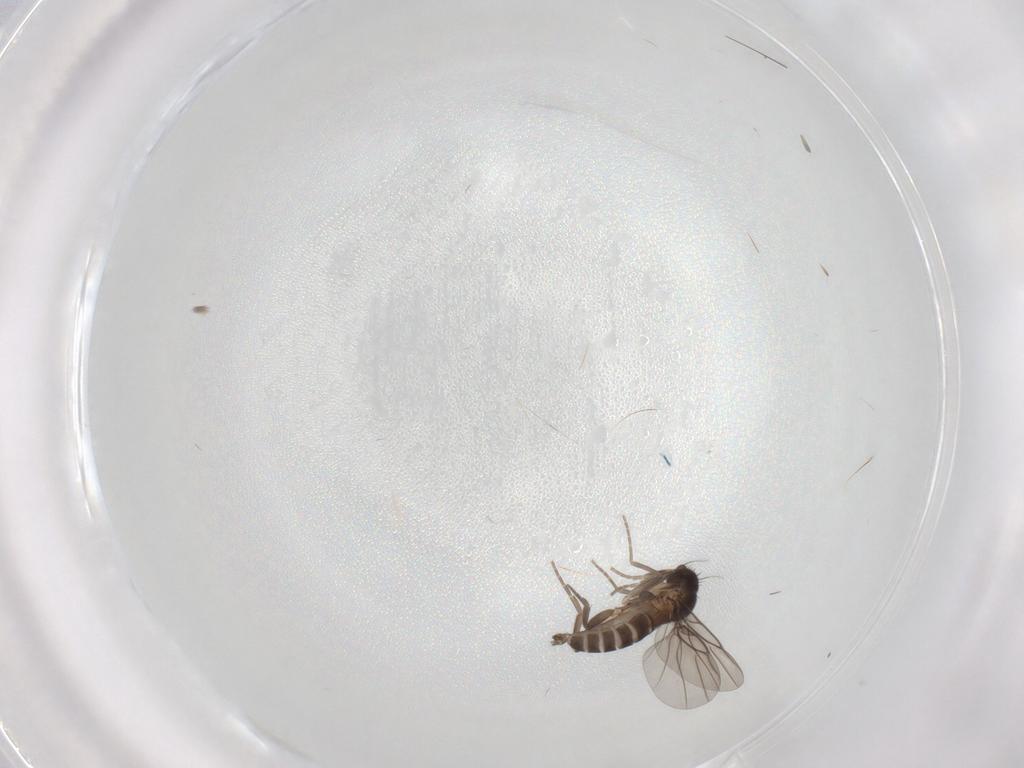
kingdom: Animalia
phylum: Arthropoda
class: Insecta
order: Diptera
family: Phoridae
